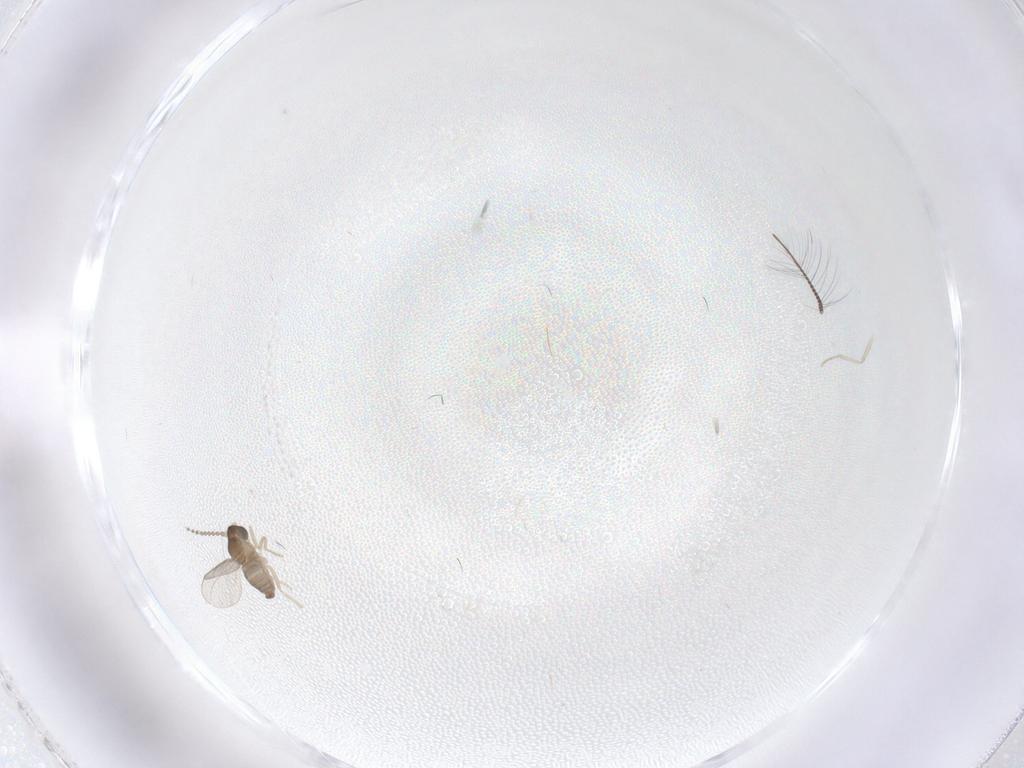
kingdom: Animalia
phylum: Arthropoda
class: Insecta
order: Diptera
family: Cecidomyiidae
